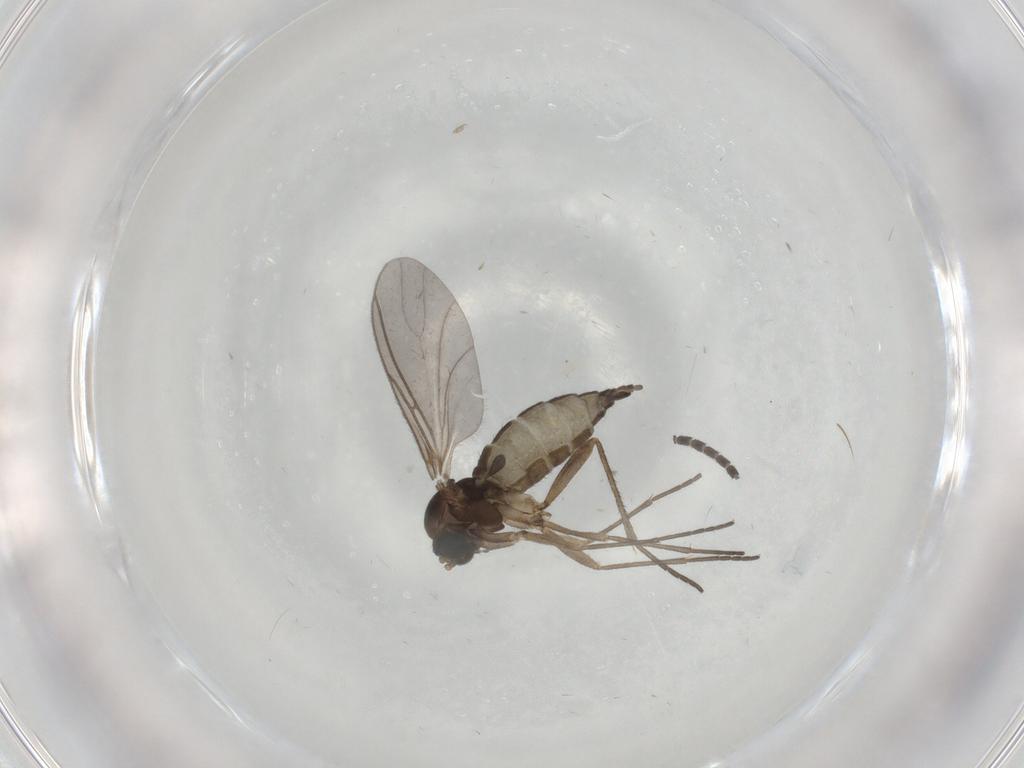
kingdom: Animalia
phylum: Arthropoda
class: Insecta
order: Diptera
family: Sciaridae
